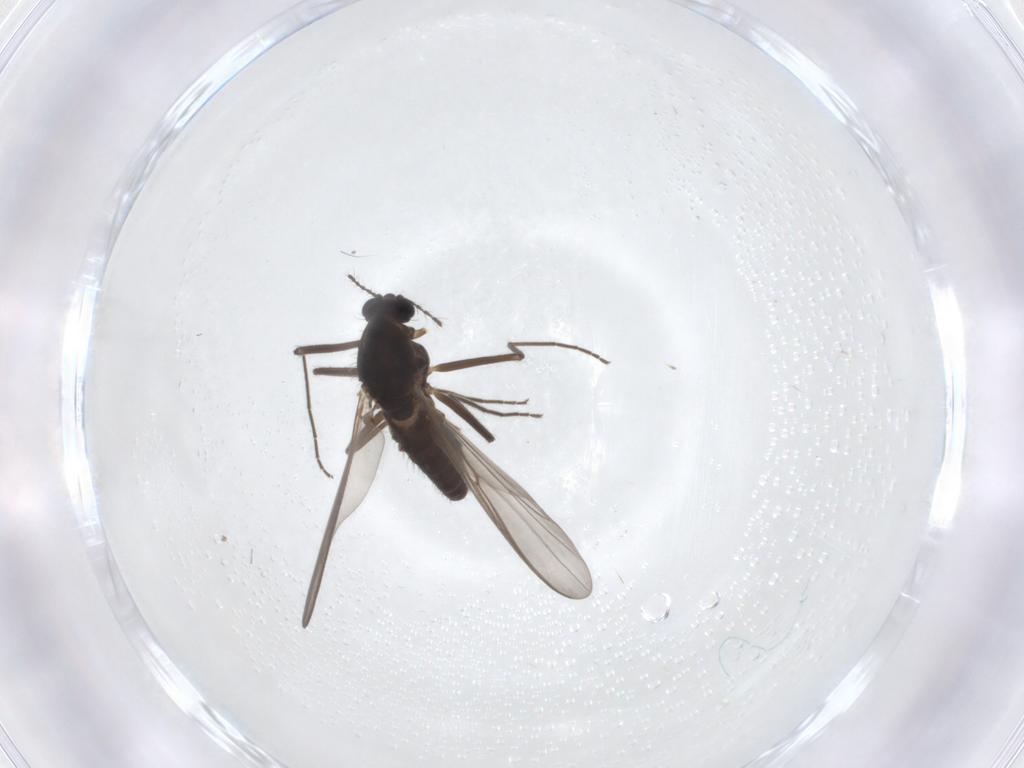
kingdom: Animalia
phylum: Arthropoda
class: Insecta
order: Diptera
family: Chironomidae
